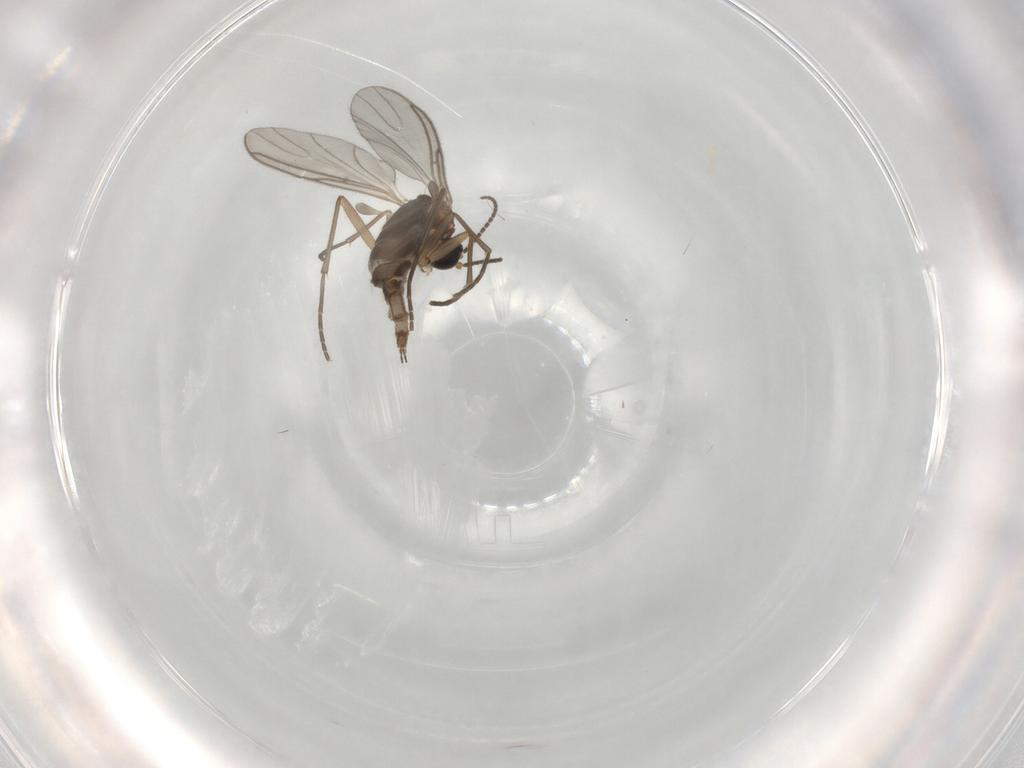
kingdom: Animalia
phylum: Arthropoda
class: Insecta
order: Diptera
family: Sciaridae
